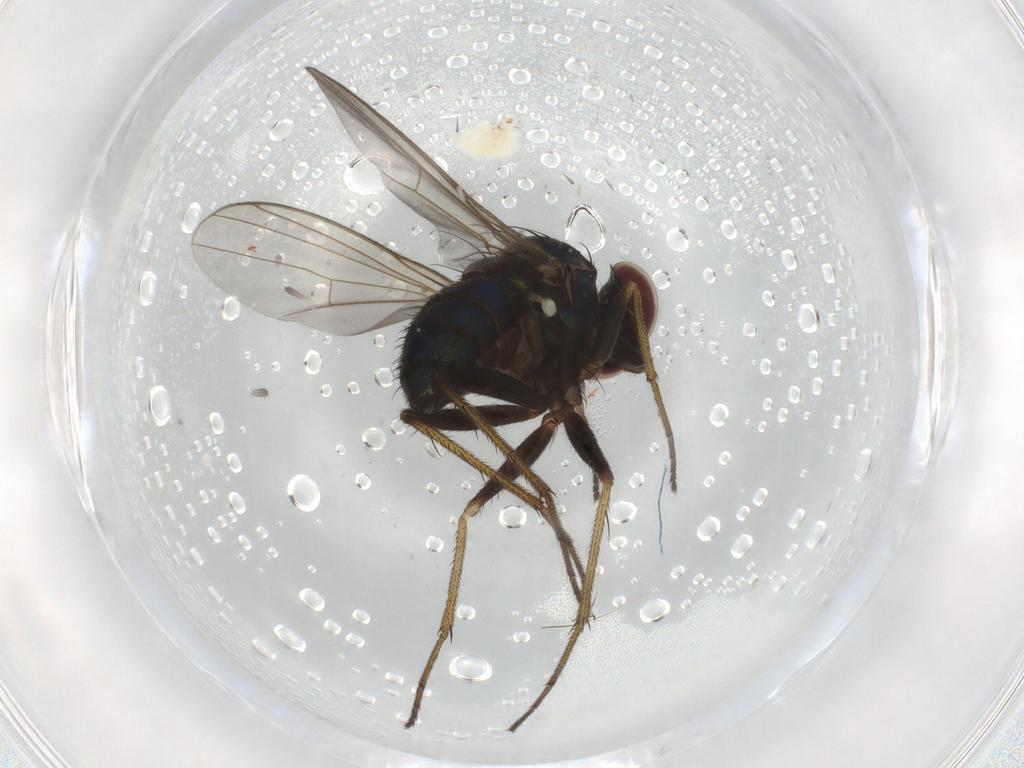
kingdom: Animalia
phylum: Arthropoda
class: Insecta
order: Diptera
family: Dolichopodidae
